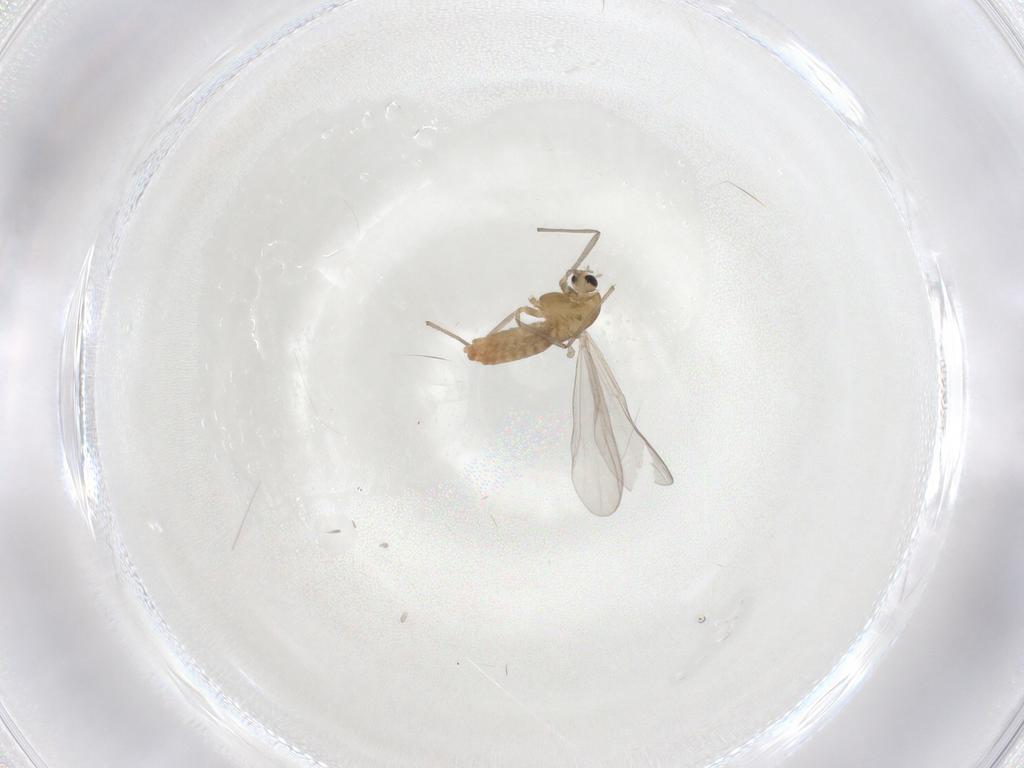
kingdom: Animalia
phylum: Arthropoda
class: Insecta
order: Diptera
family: Chironomidae
